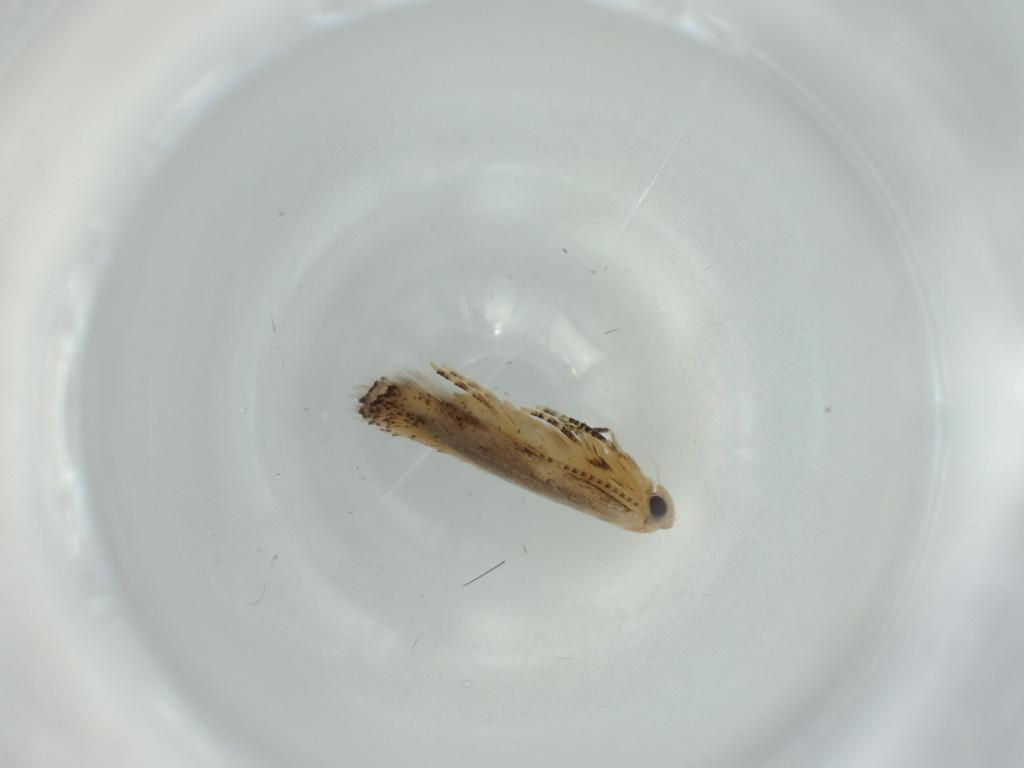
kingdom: Animalia
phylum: Arthropoda
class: Insecta
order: Lepidoptera
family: Bucculatricidae
